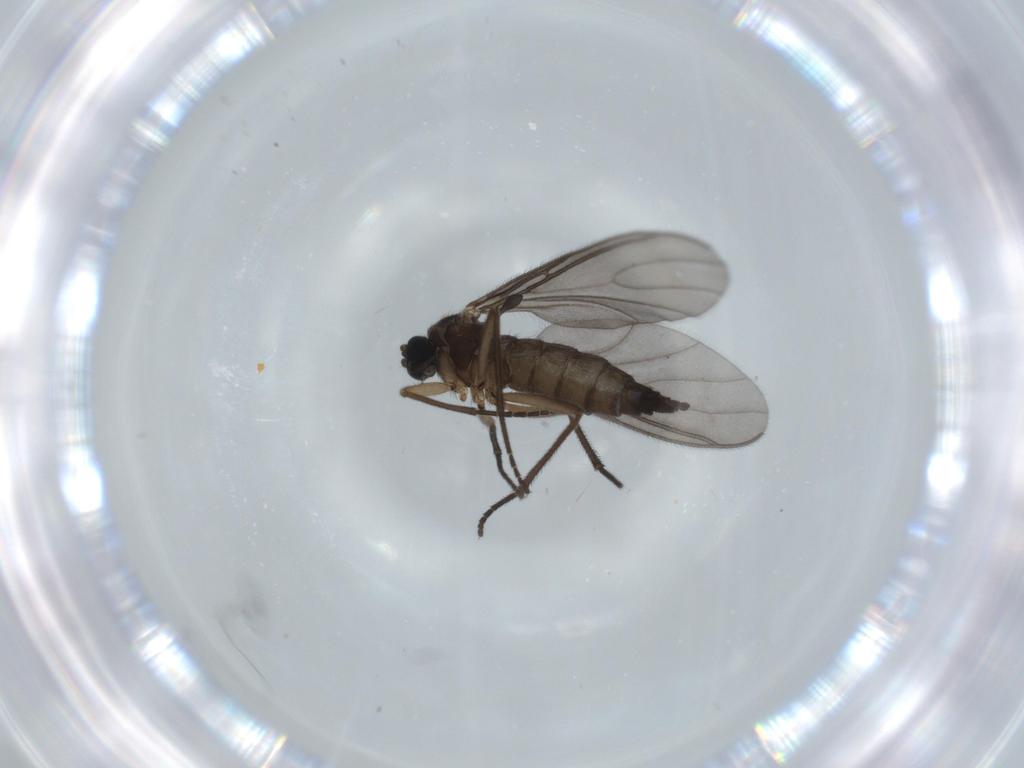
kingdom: Animalia
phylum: Arthropoda
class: Insecta
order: Diptera
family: Sciaridae
